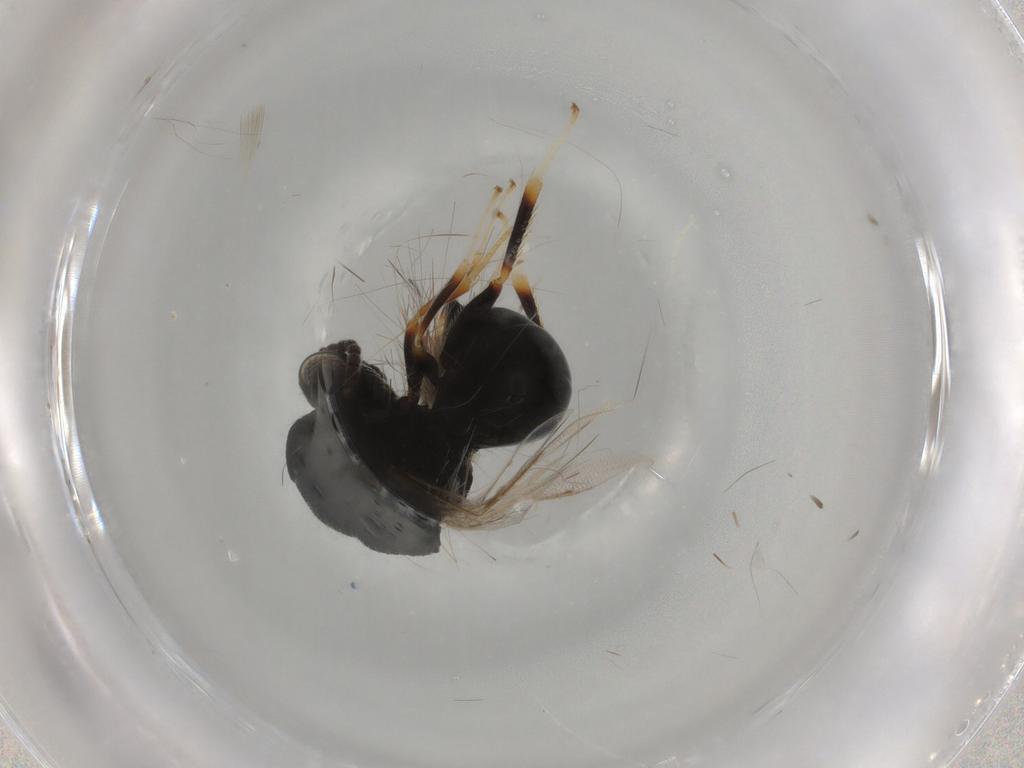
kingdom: Animalia
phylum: Arthropoda
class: Insecta
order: Hymenoptera
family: Eurytomidae
